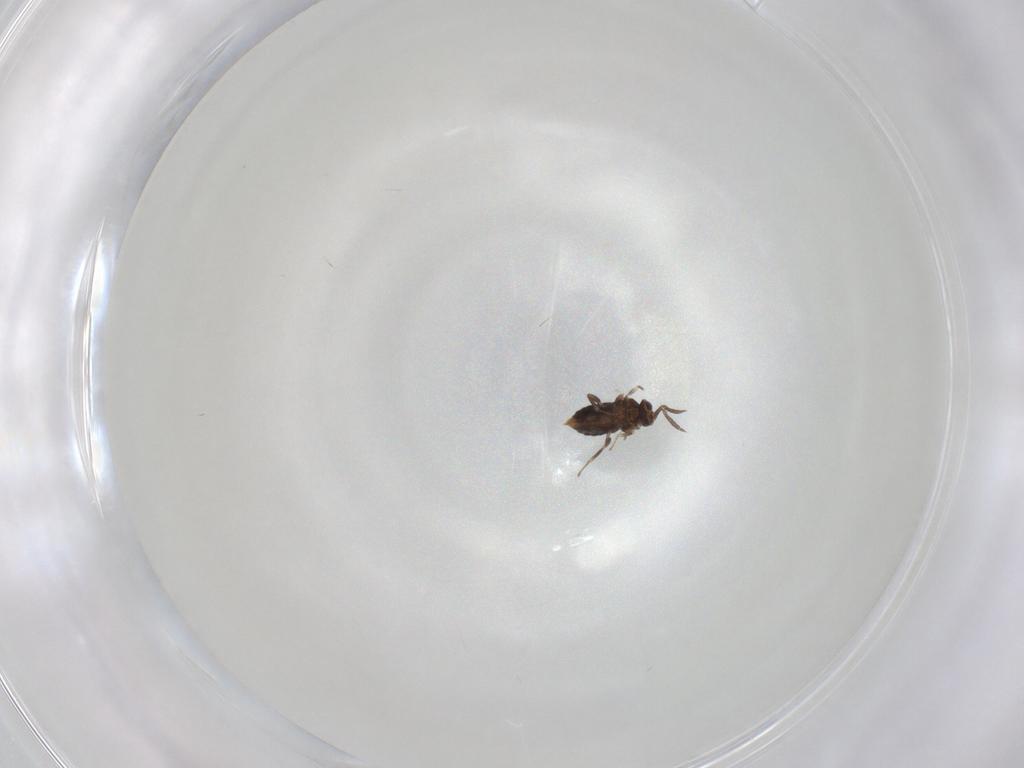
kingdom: Animalia
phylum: Arthropoda
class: Insecta
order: Hymenoptera
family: Aphelinidae
